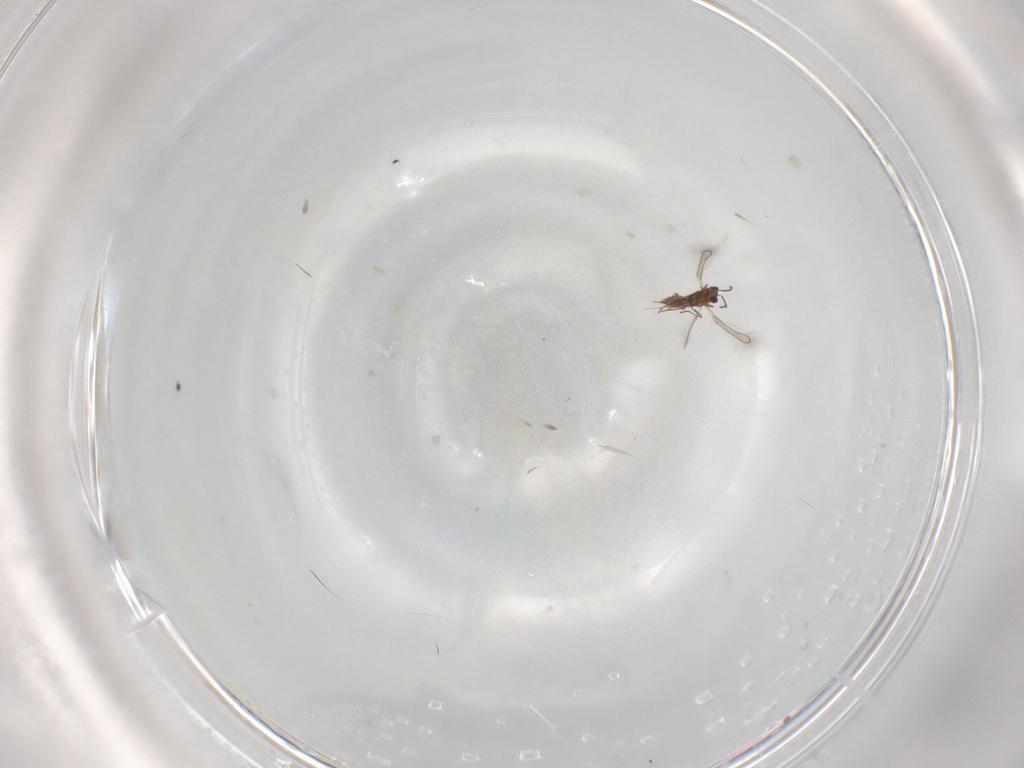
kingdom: Animalia
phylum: Arthropoda
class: Insecta
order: Hymenoptera
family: Mymaridae
